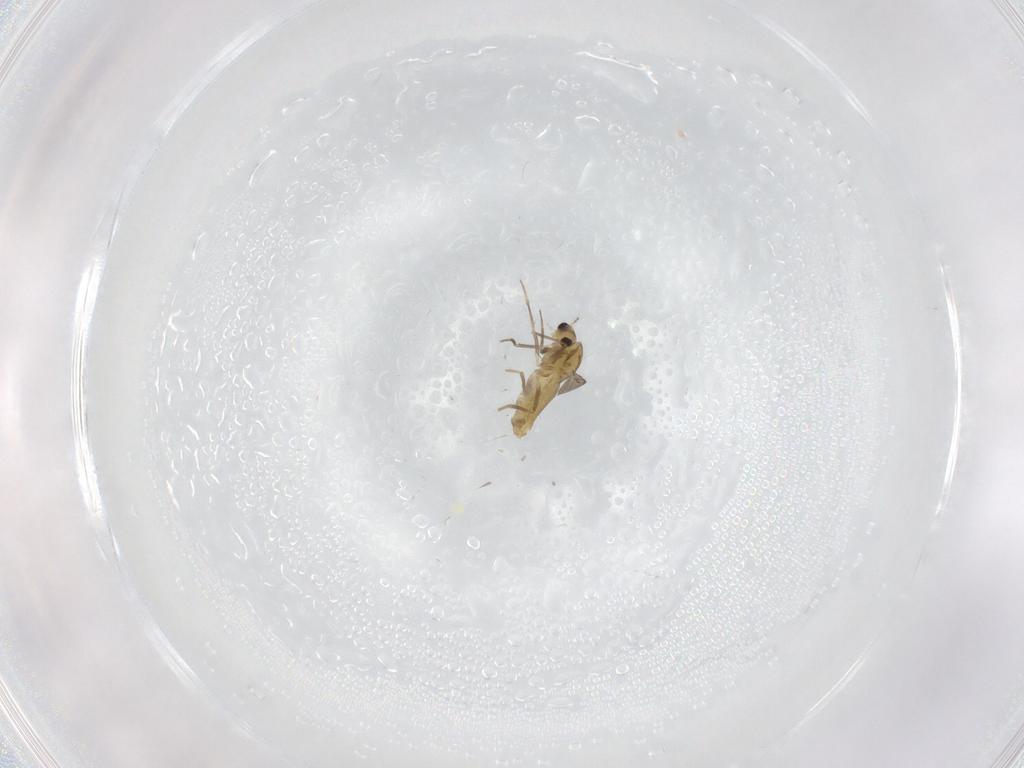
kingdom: Animalia
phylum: Arthropoda
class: Insecta
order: Diptera
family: Chironomidae
